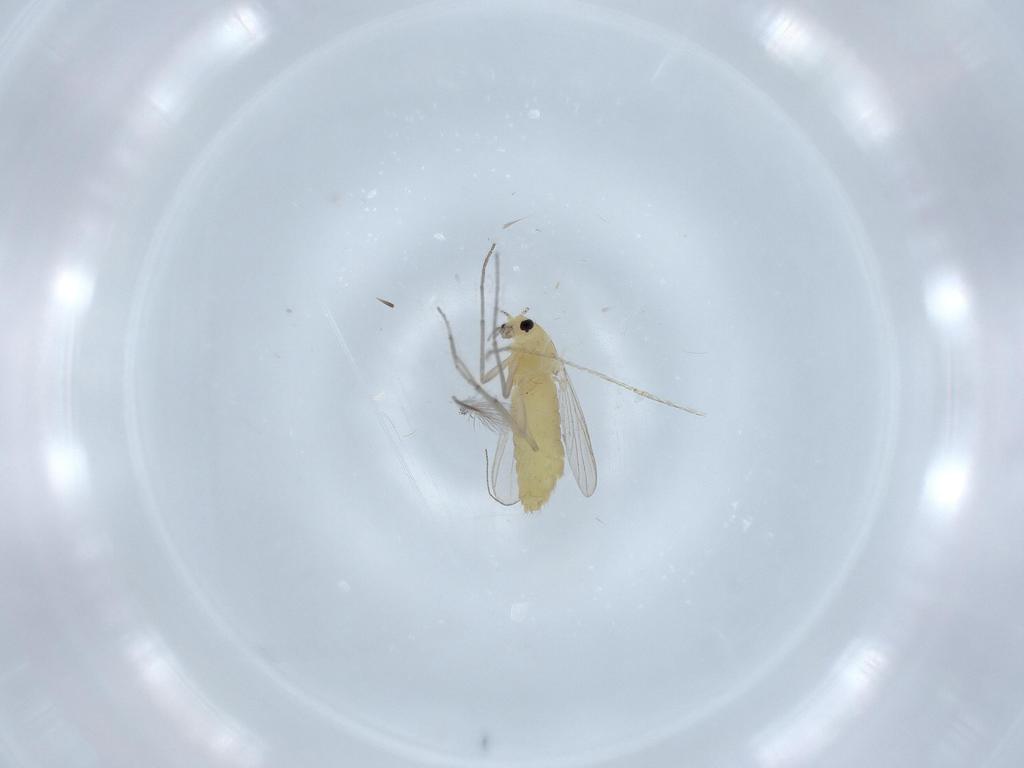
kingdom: Animalia
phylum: Arthropoda
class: Insecta
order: Diptera
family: Chironomidae
